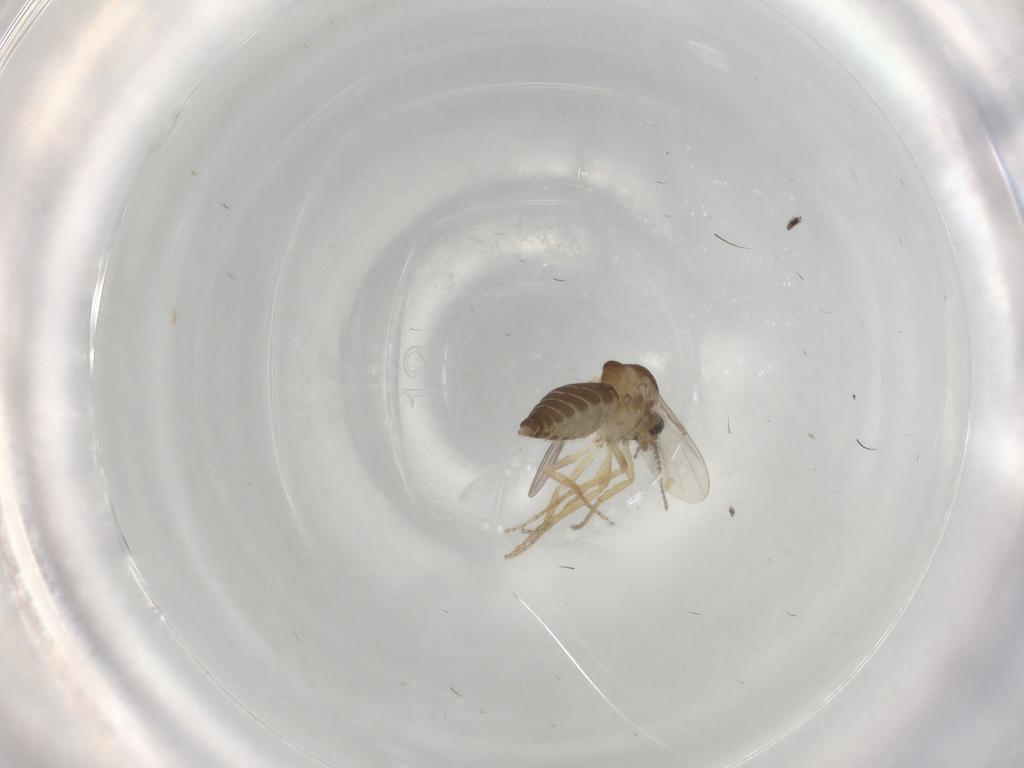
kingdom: Animalia
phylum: Arthropoda
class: Insecta
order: Diptera
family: Ceratopogonidae
